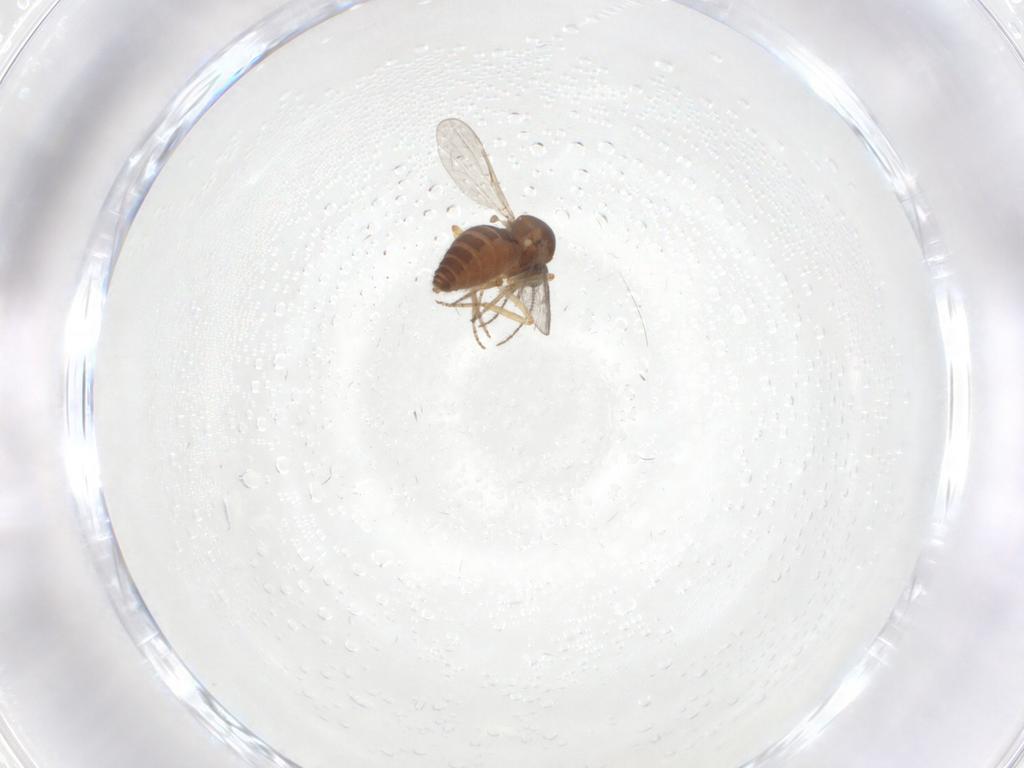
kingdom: Animalia
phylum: Arthropoda
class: Insecta
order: Diptera
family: Ceratopogonidae
